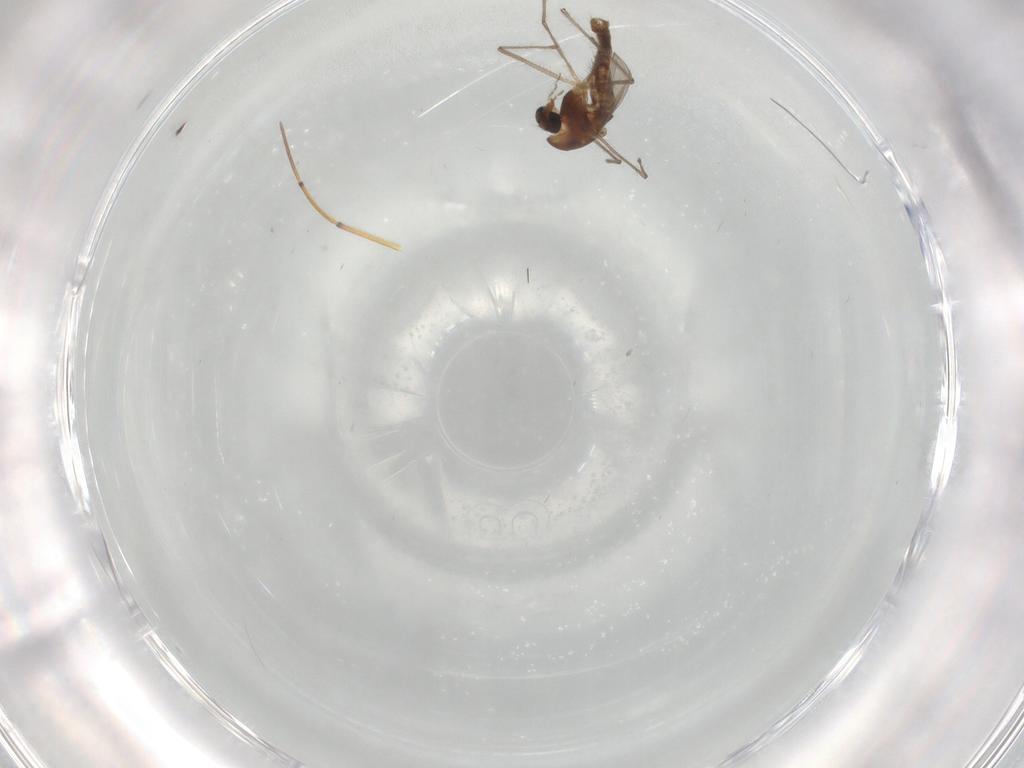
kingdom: Animalia
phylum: Arthropoda
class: Insecta
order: Diptera
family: Chironomidae
